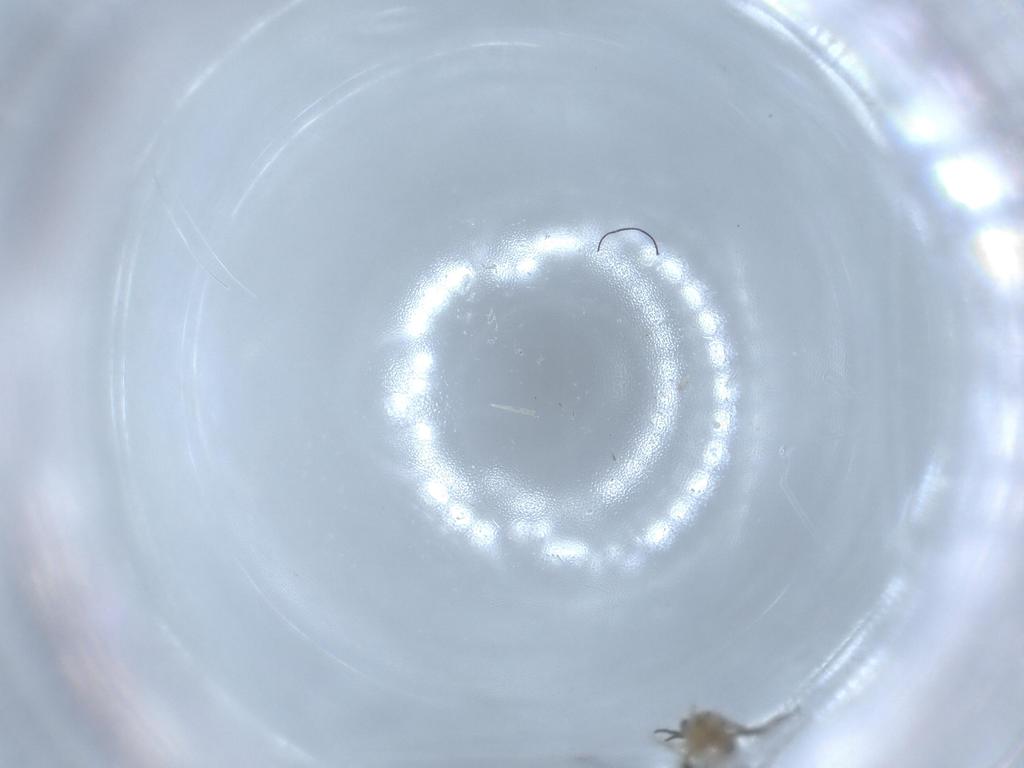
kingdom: Animalia
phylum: Arthropoda
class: Insecta
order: Diptera
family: Cecidomyiidae
